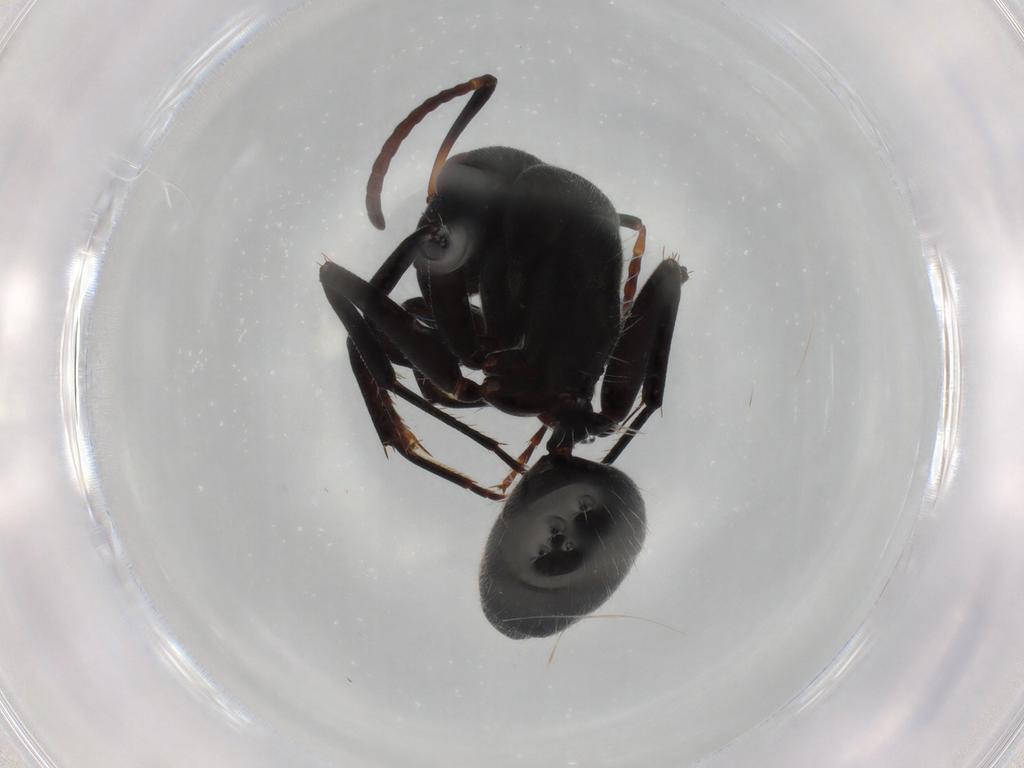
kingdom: Animalia
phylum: Arthropoda
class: Insecta
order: Hymenoptera
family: Formicidae
